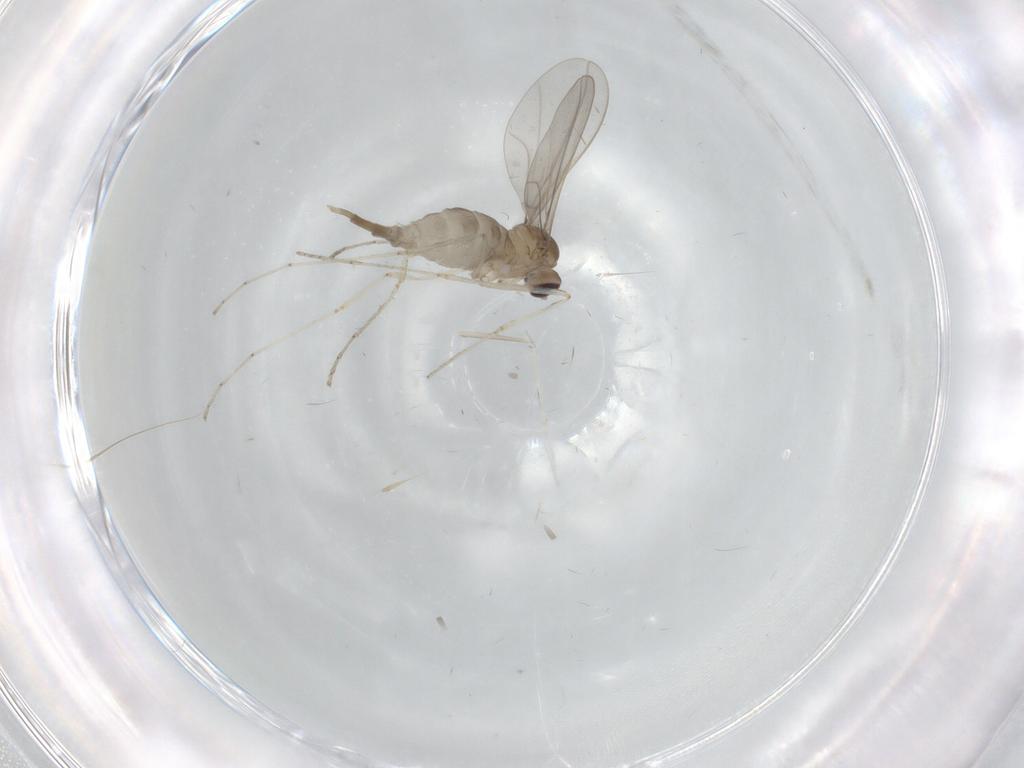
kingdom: Animalia
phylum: Arthropoda
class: Insecta
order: Diptera
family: Cecidomyiidae
